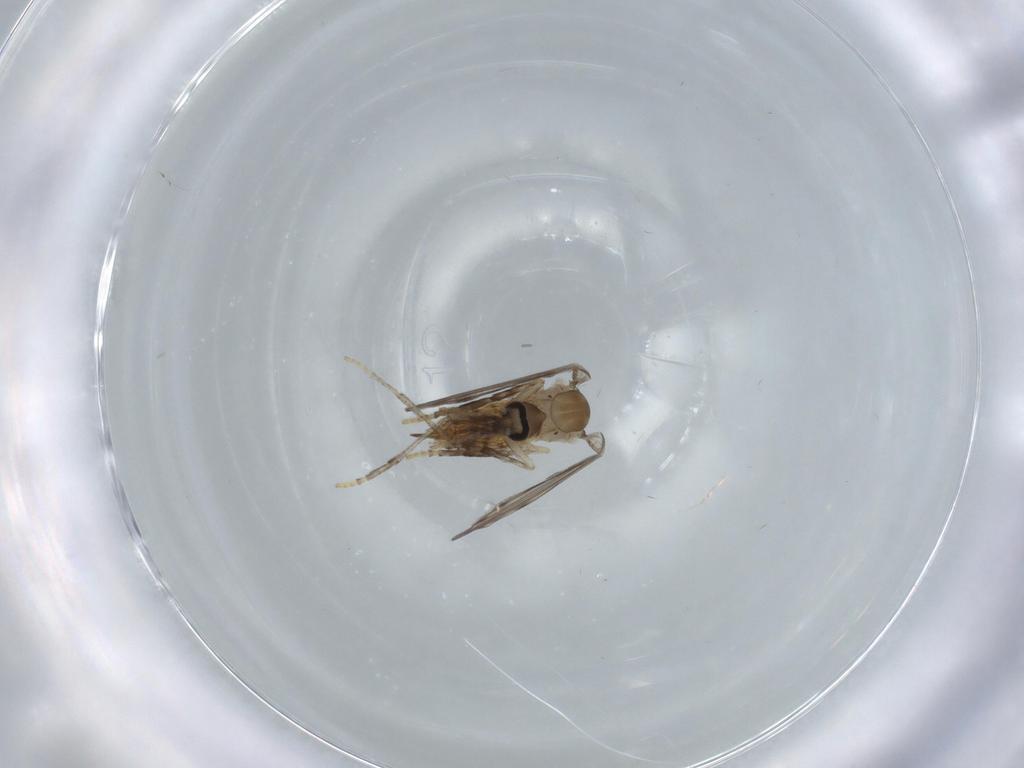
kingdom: Animalia
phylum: Arthropoda
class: Insecta
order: Diptera
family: Psychodidae
